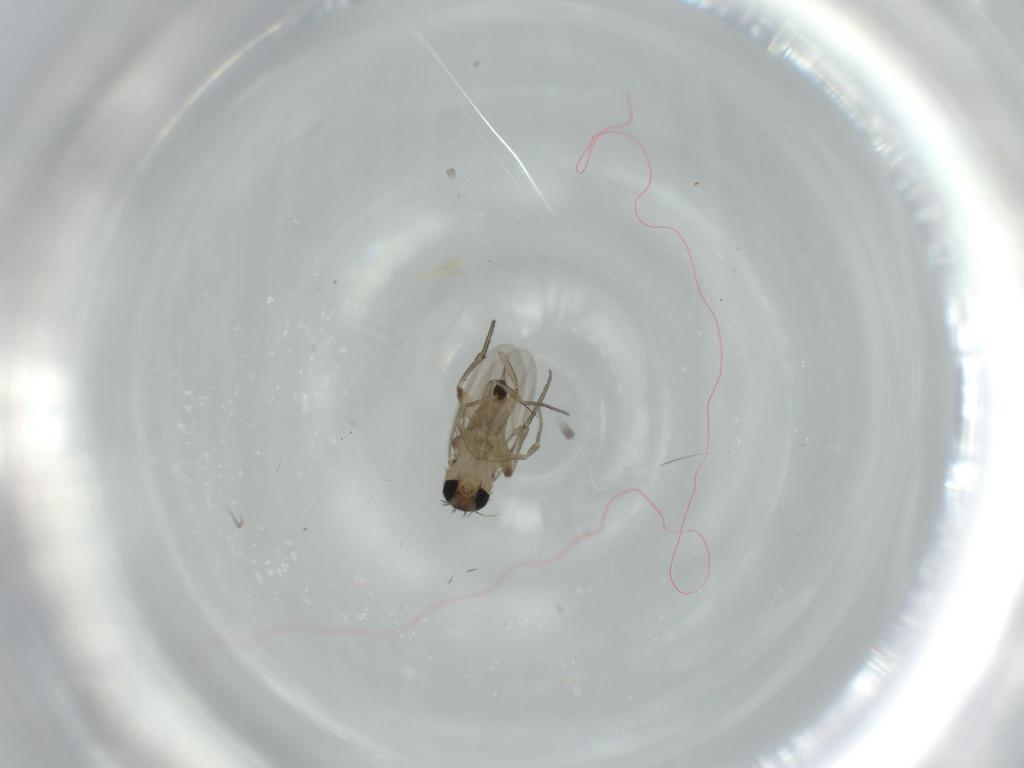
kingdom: Animalia
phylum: Arthropoda
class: Insecta
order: Diptera
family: Phoridae
